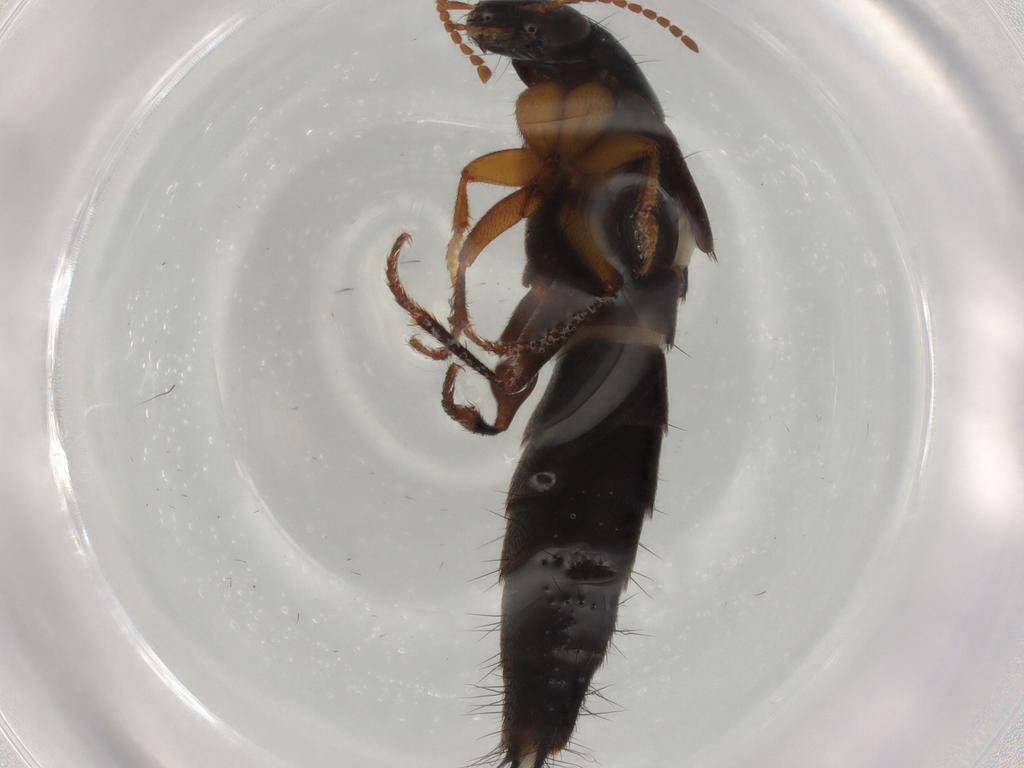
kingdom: Animalia
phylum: Arthropoda
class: Insecta
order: Coleoptera
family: Staphylinidae
